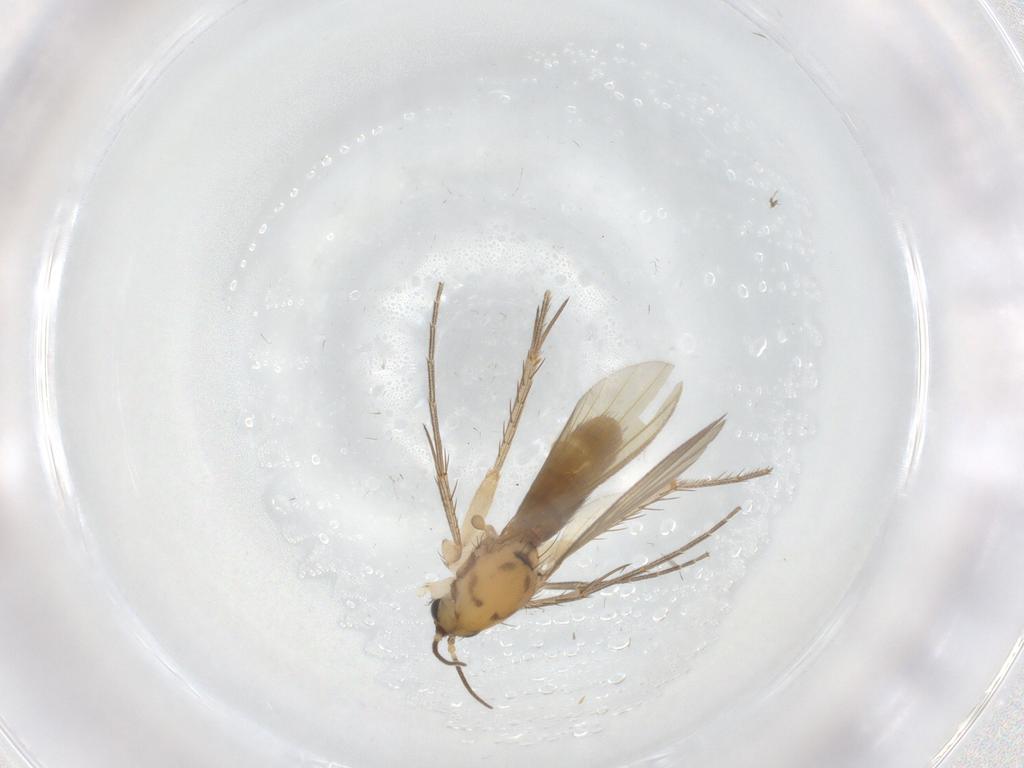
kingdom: Animalia
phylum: Arthropoda
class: Insecta
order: Diptera
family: Mycetophilidae
